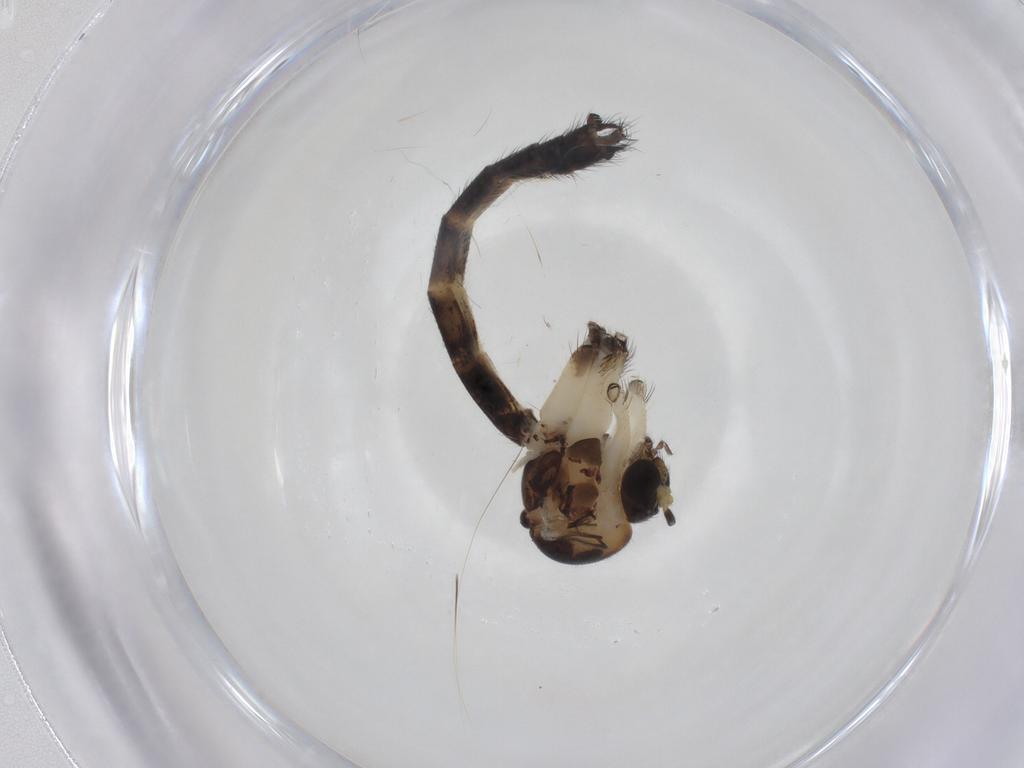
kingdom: Animalia
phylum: Arthropoda
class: Insecta
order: Diptera
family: Mycetophilidae
